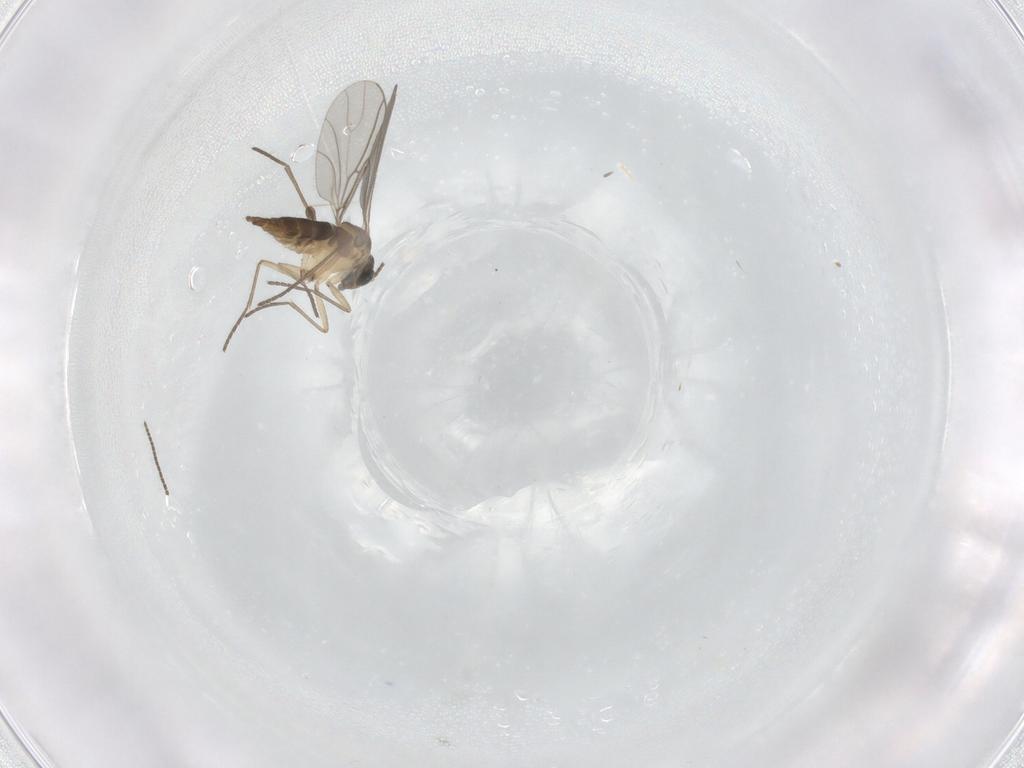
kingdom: Animalia
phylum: Arthropoda
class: Insecta
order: Diptera
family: Sciaridae
